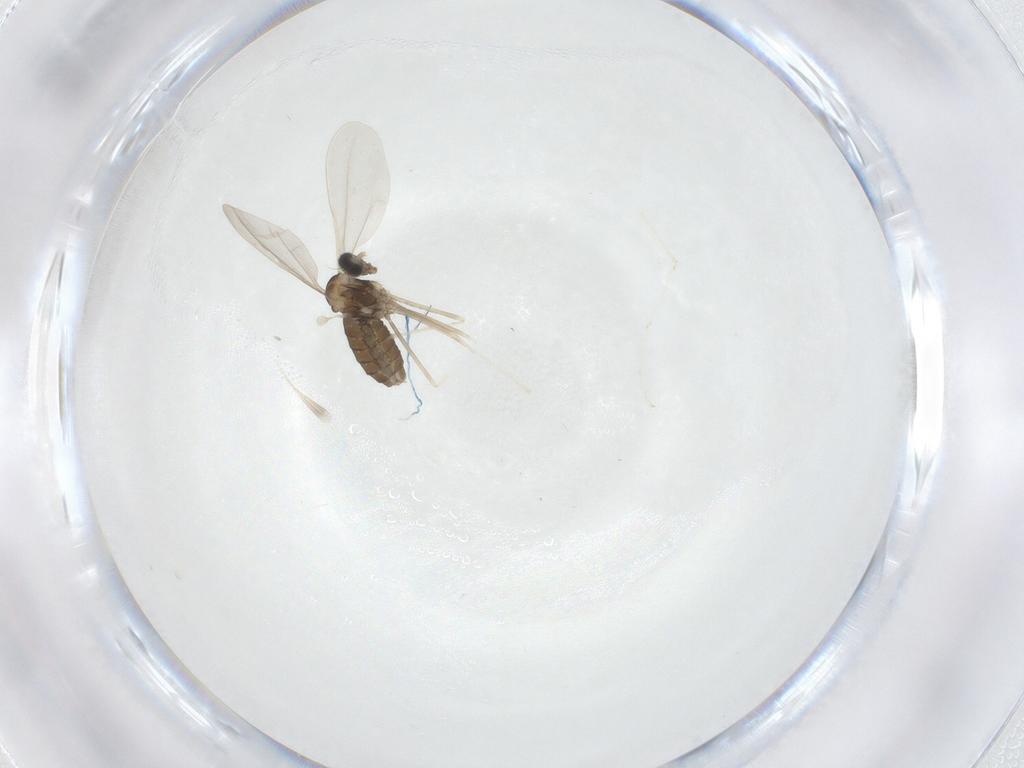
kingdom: Animalia
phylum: Arthropoda
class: Insecta
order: Diptera
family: Cecidomyiidae
